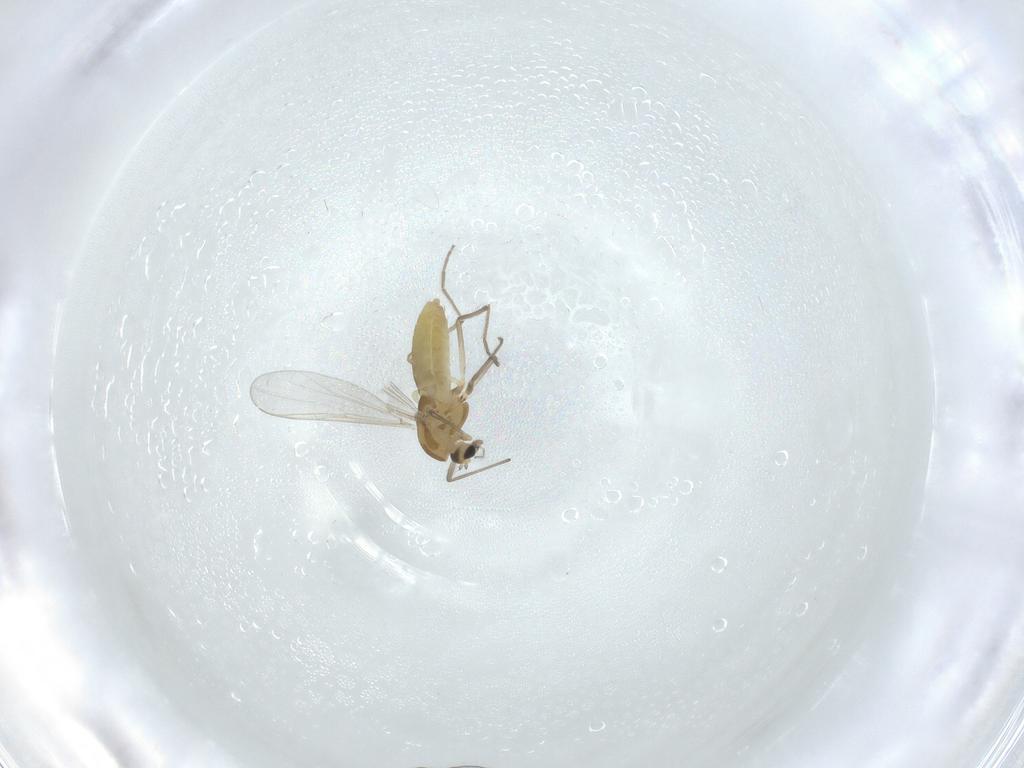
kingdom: Animalia
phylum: Arthropoda
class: Insecta
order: Diptera
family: Chironomidae
